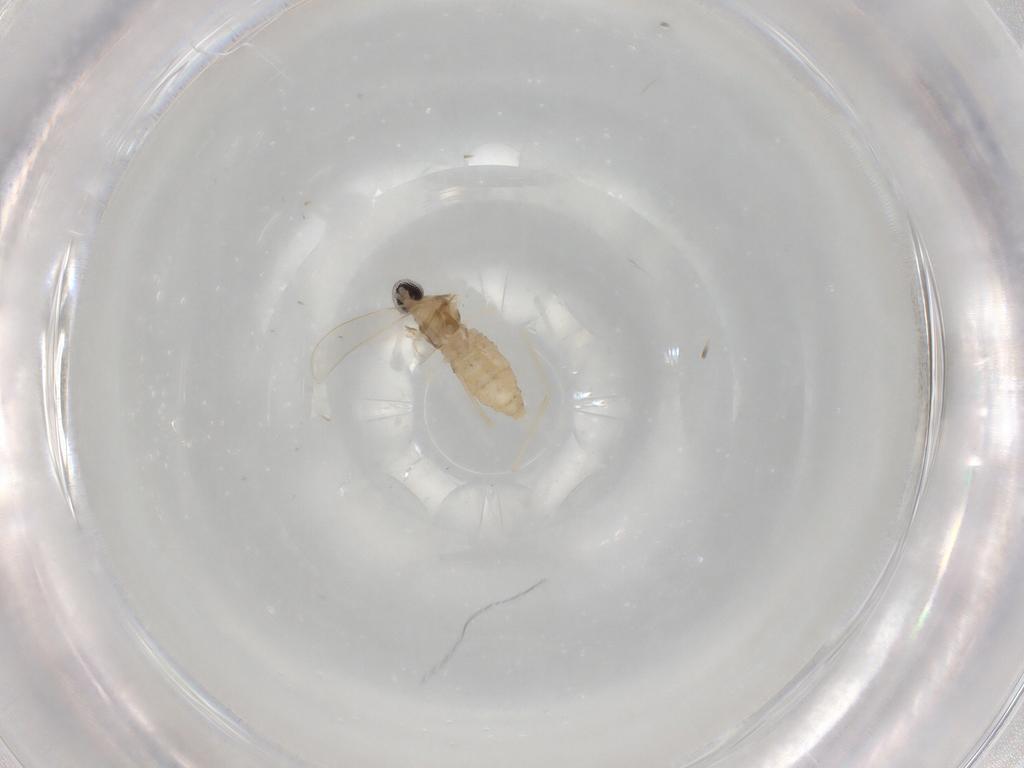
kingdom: Animalia
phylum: Arthropoda
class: Insecta
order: Diptera
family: Cecidomyiidae
